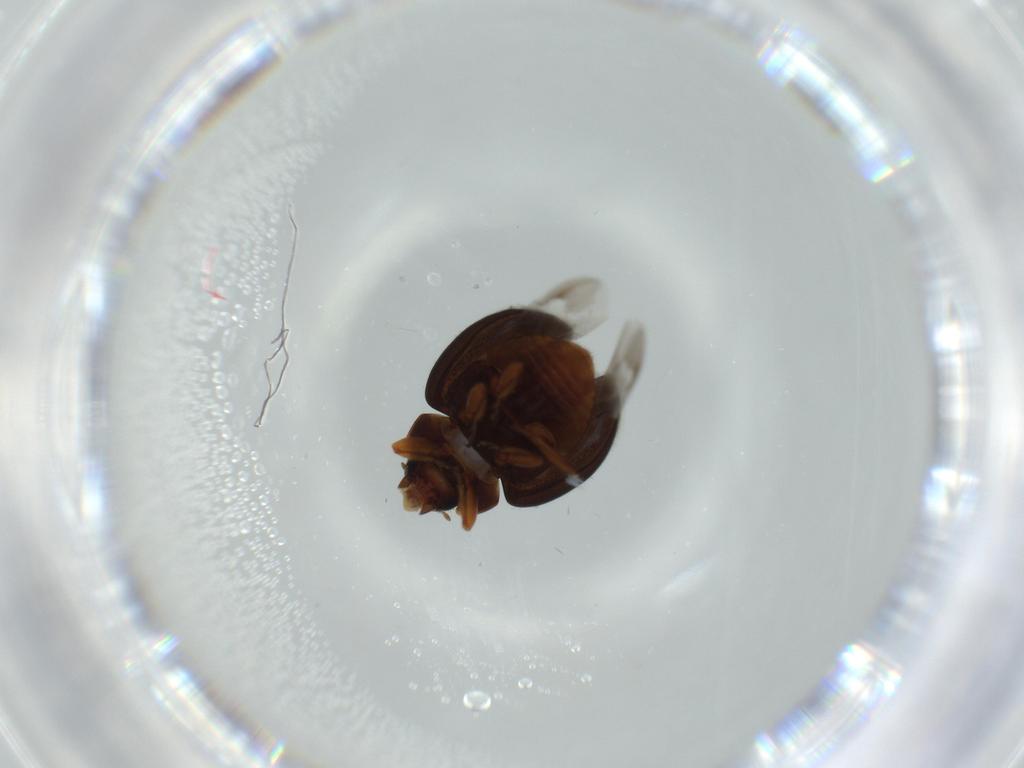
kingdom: Animalia
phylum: Arthropoda
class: Insecta
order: Coleoptera
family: Coccinellidae
